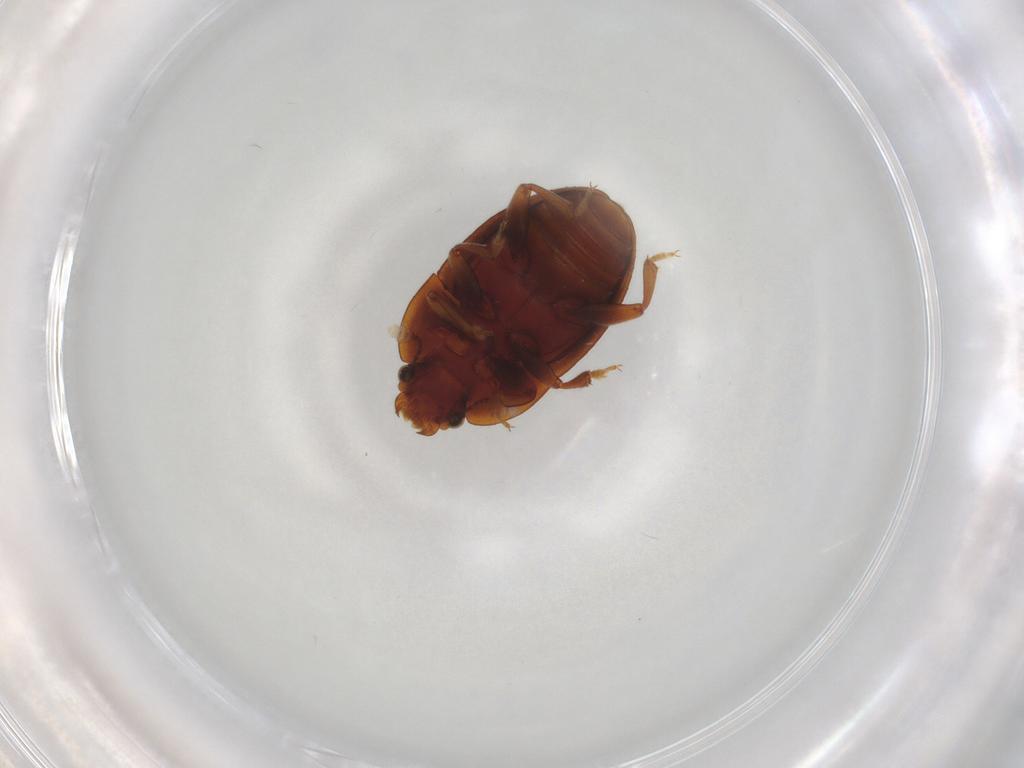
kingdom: Animalia
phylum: Arthropoda
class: Insecta
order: Coleoptera
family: Nitidulidae
